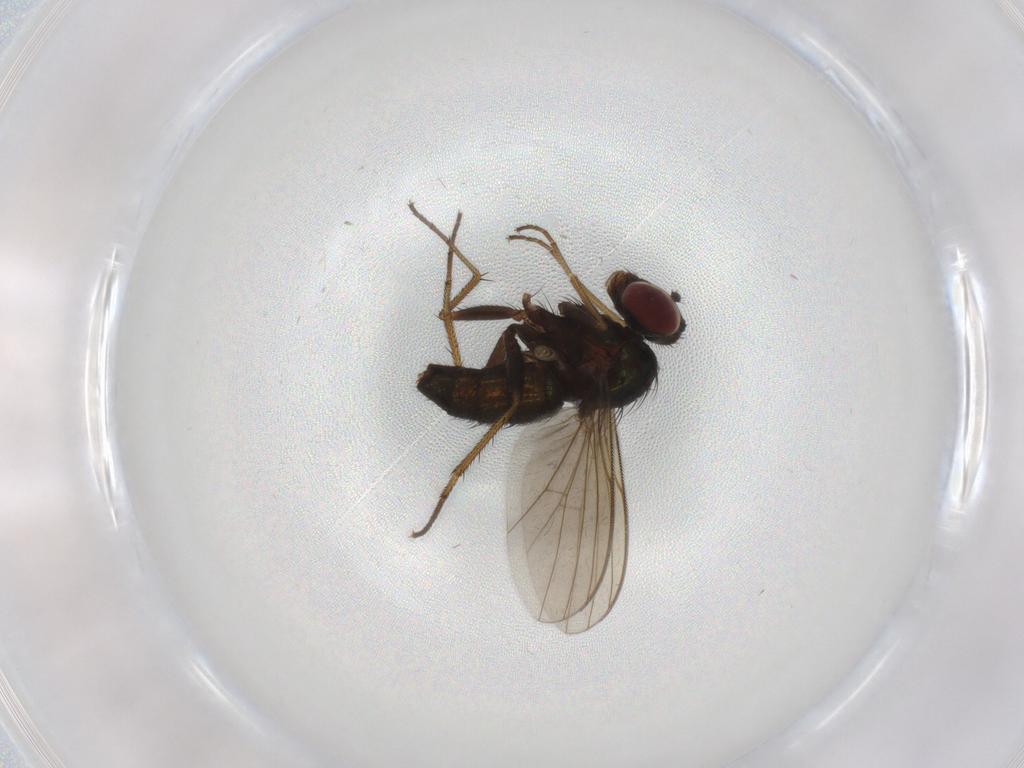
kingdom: Animalia
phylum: Arthropoda
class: Insecta
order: Diptera
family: Dolichopodidae
